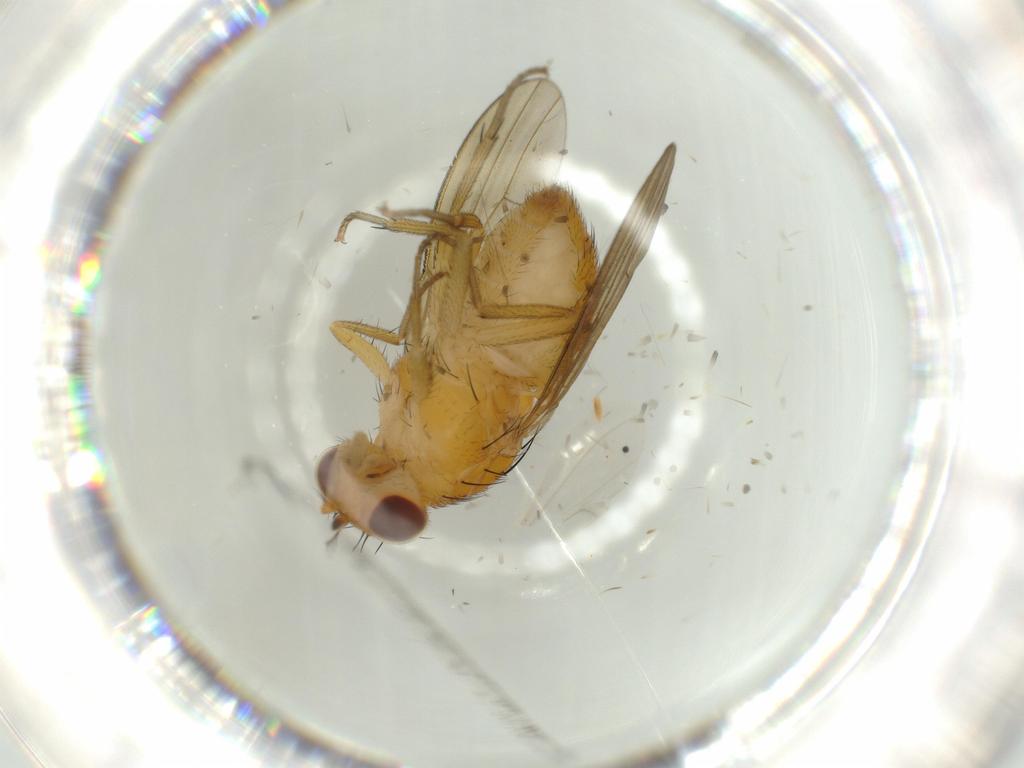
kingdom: Animalia
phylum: Arthropoda
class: Insecta
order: Diptera
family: Lauxaniidae
